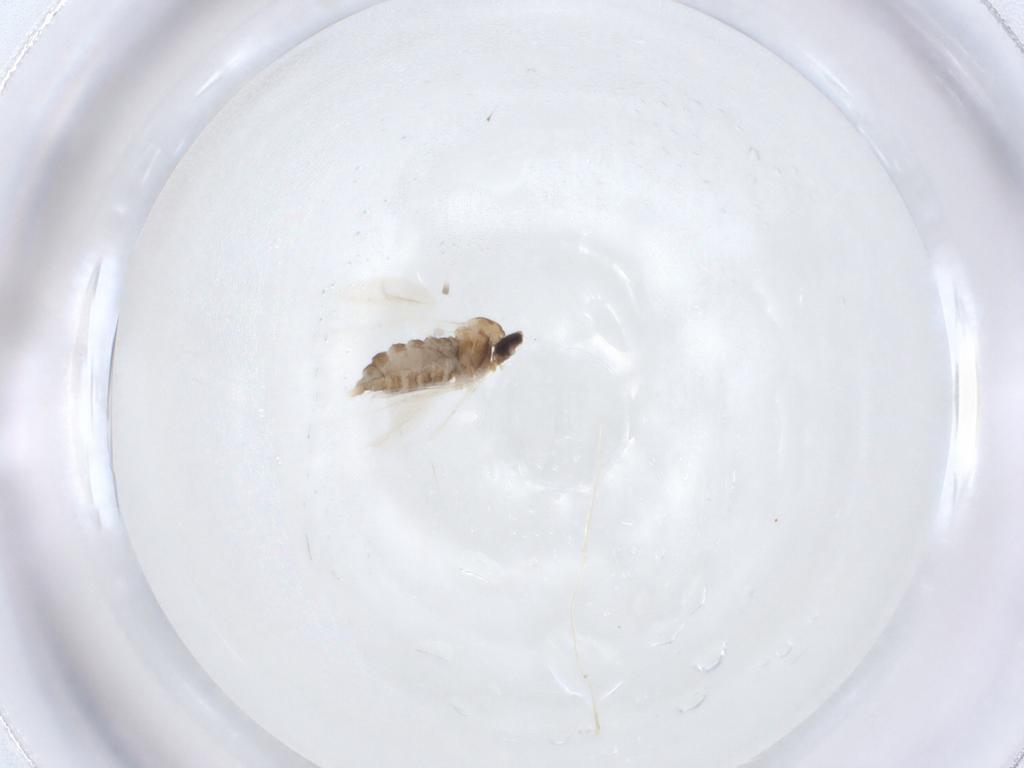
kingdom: Animalia
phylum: Arthropoda
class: Insecta
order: Diptera
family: Cecidomyiidae
